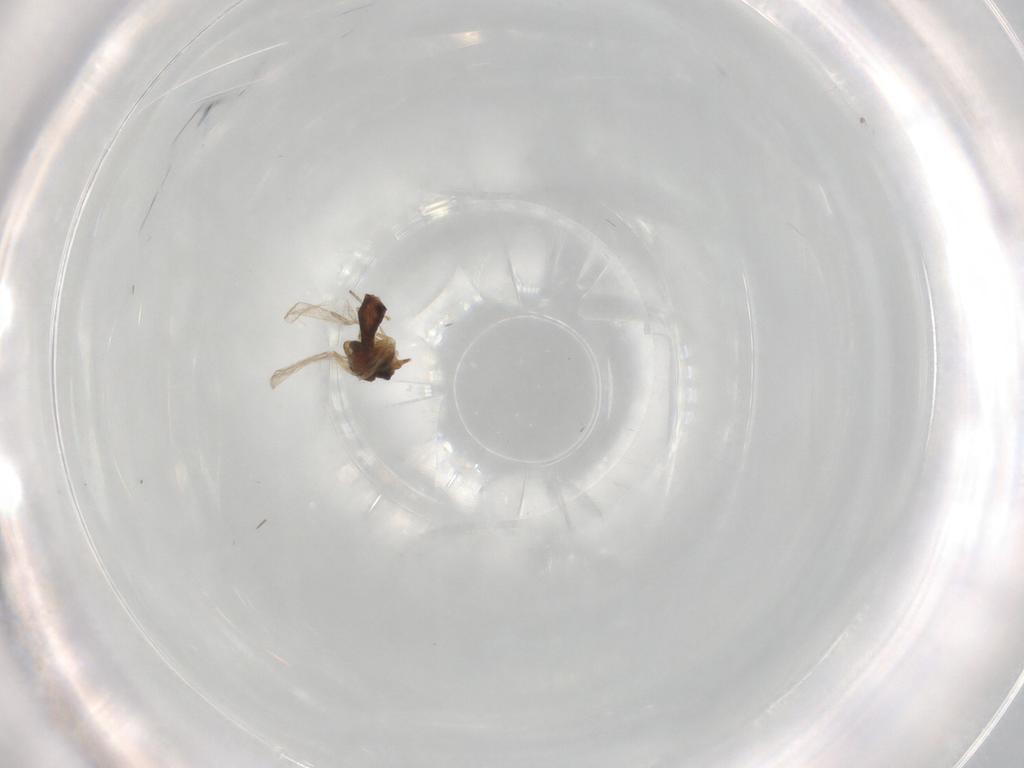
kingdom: Animalia
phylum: Arthropoda
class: Insecta
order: Diptera
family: Ceratopogonidae
